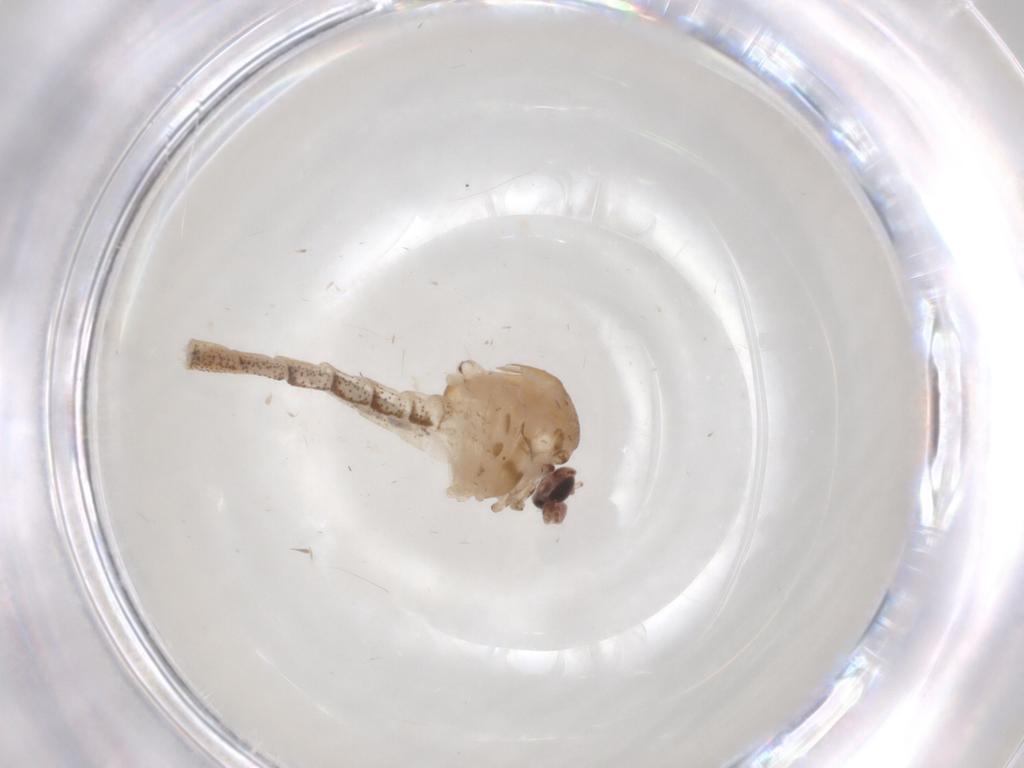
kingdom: Animalia
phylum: Arthropoda
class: Insecta
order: Diptera
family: Chaoboridae
